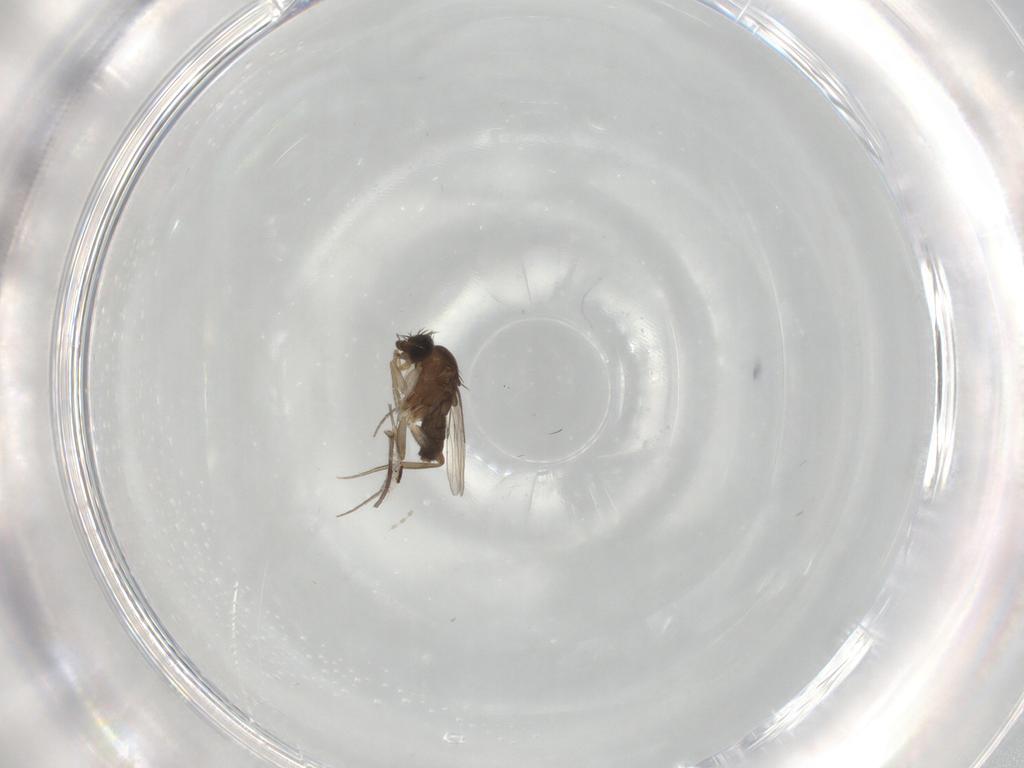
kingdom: Animalia
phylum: Arthropoda
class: Insecta
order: Diptera
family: Phoridae
